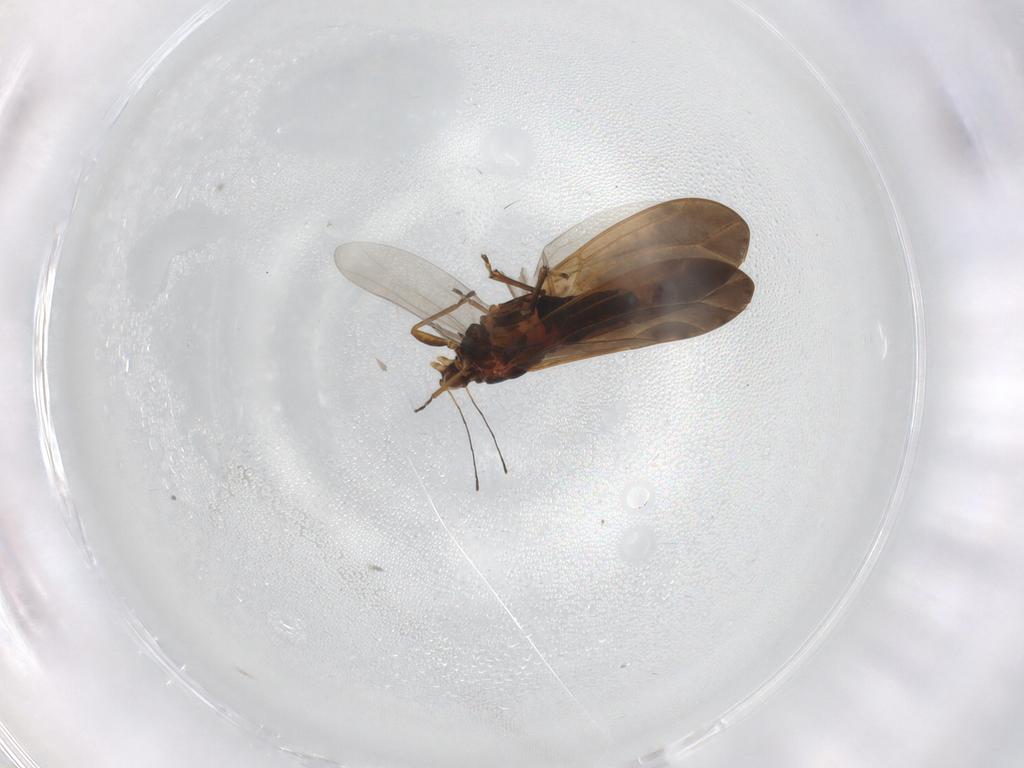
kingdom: Animalia
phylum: Arthropoda
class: Insecta
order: Hemiptera
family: Triozidae
